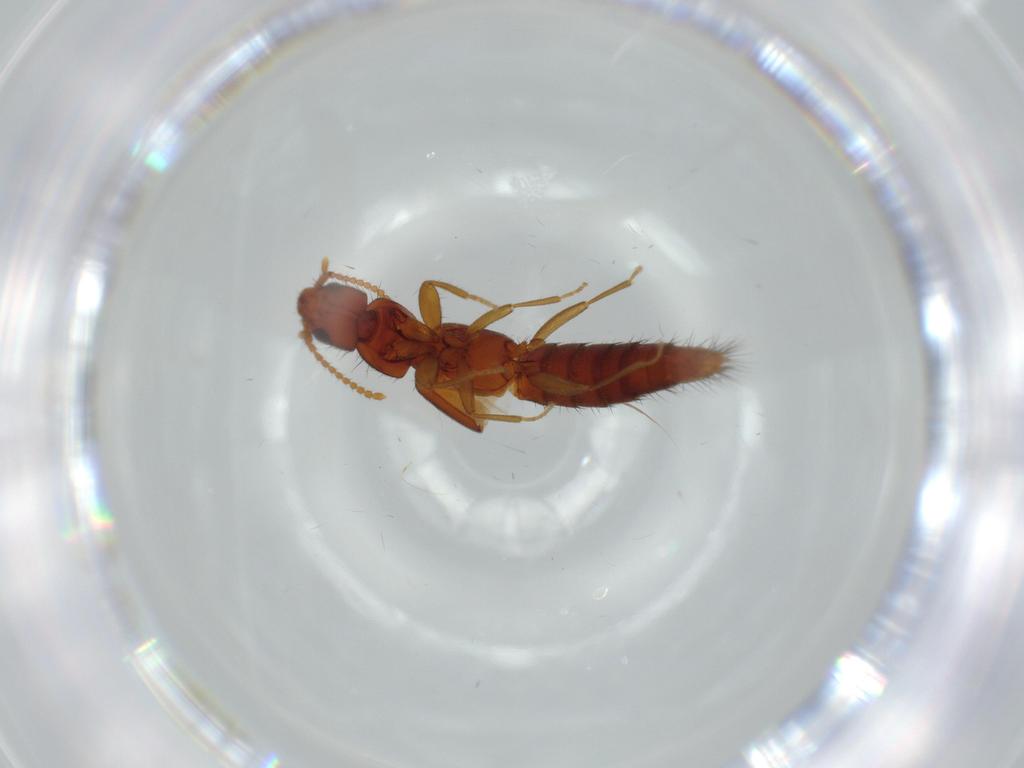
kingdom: Animalia
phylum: Arthropoda
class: Insecta
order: Coleoptera
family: Staphylinidae
